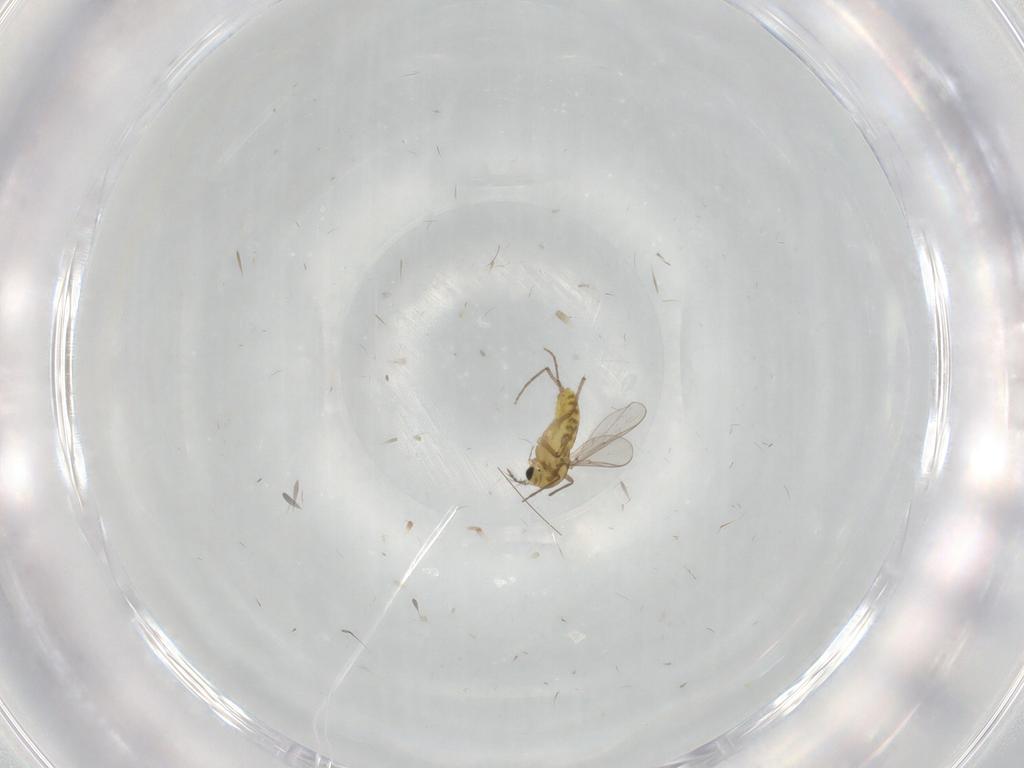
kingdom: Animalia
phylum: Arthropoda
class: Insecta
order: Diptera
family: Chironomidae
